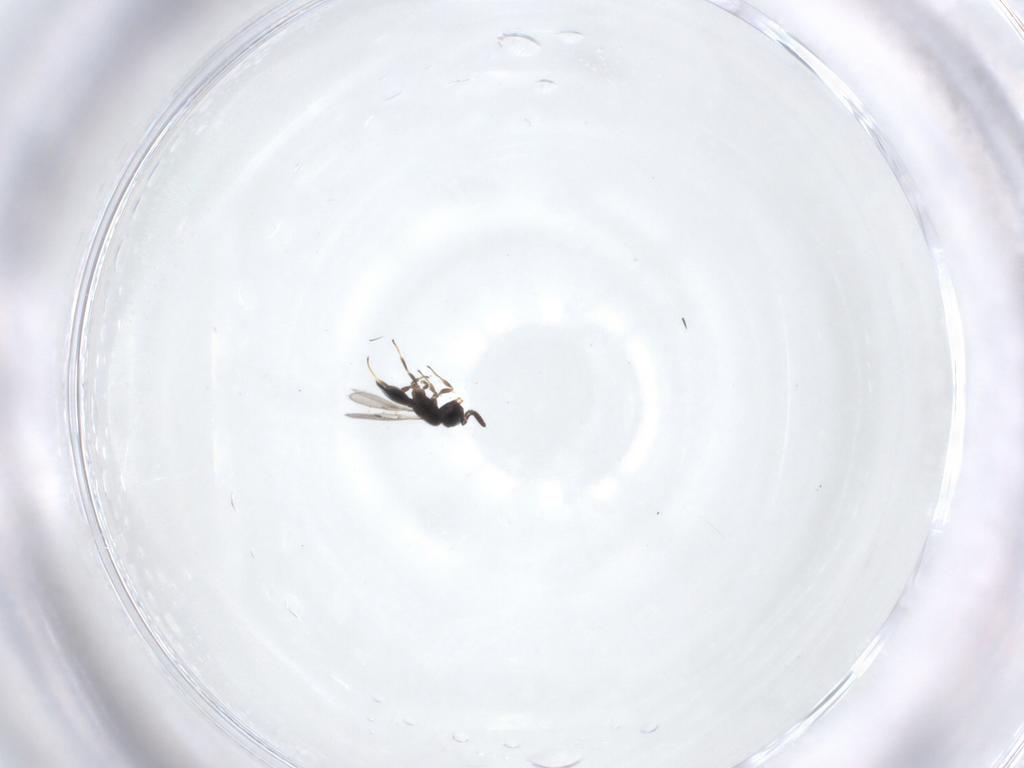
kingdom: Animalia
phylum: Arthropoda
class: Insecta
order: Hymenoptera
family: Scelionidae
